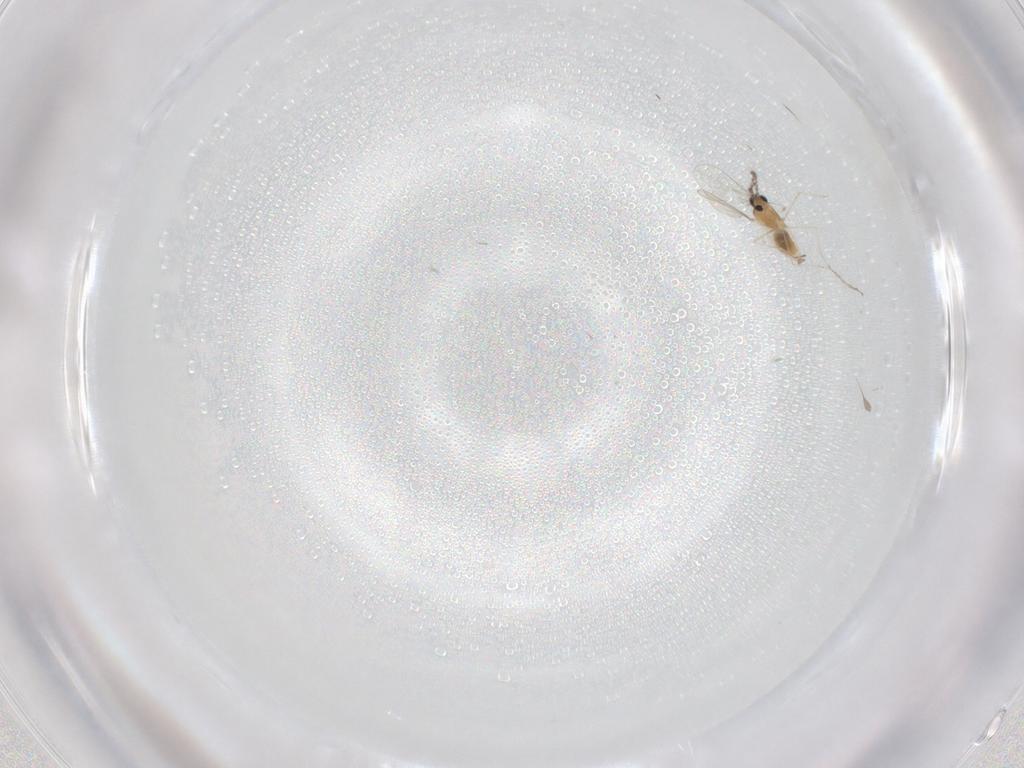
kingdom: Animalia
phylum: Arthropoda
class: Insecta
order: Diptera
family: Cecidomyiidae
